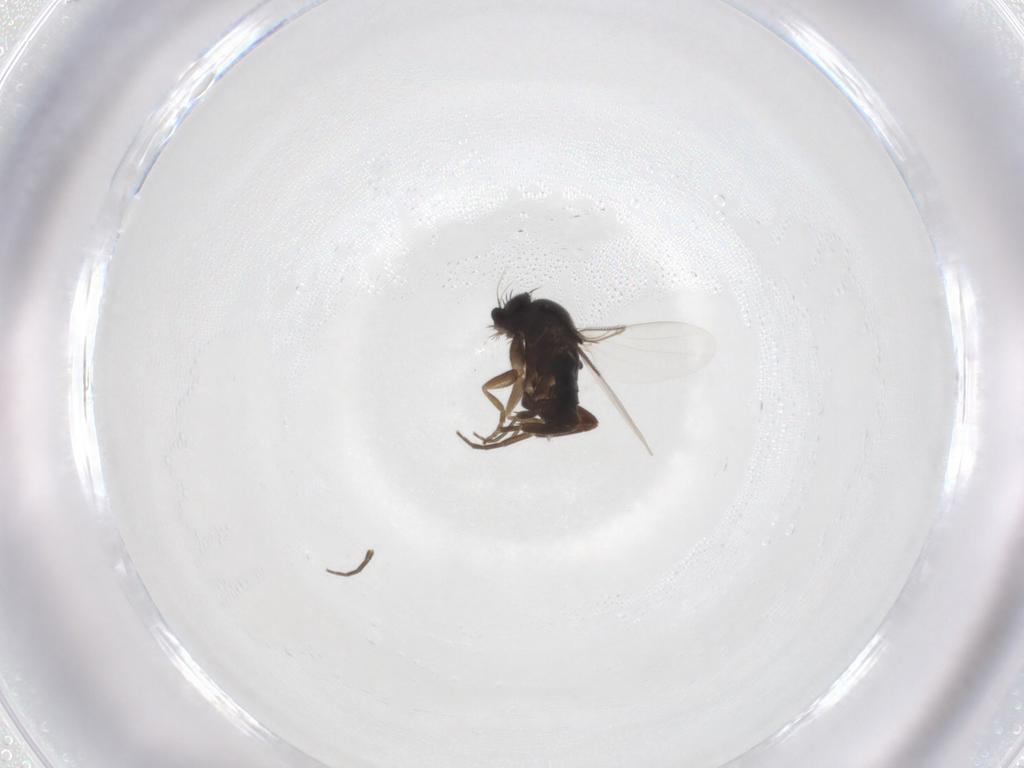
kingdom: Animalia
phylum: Arthropoda
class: Insecta
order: Diptera
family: Phoridae
